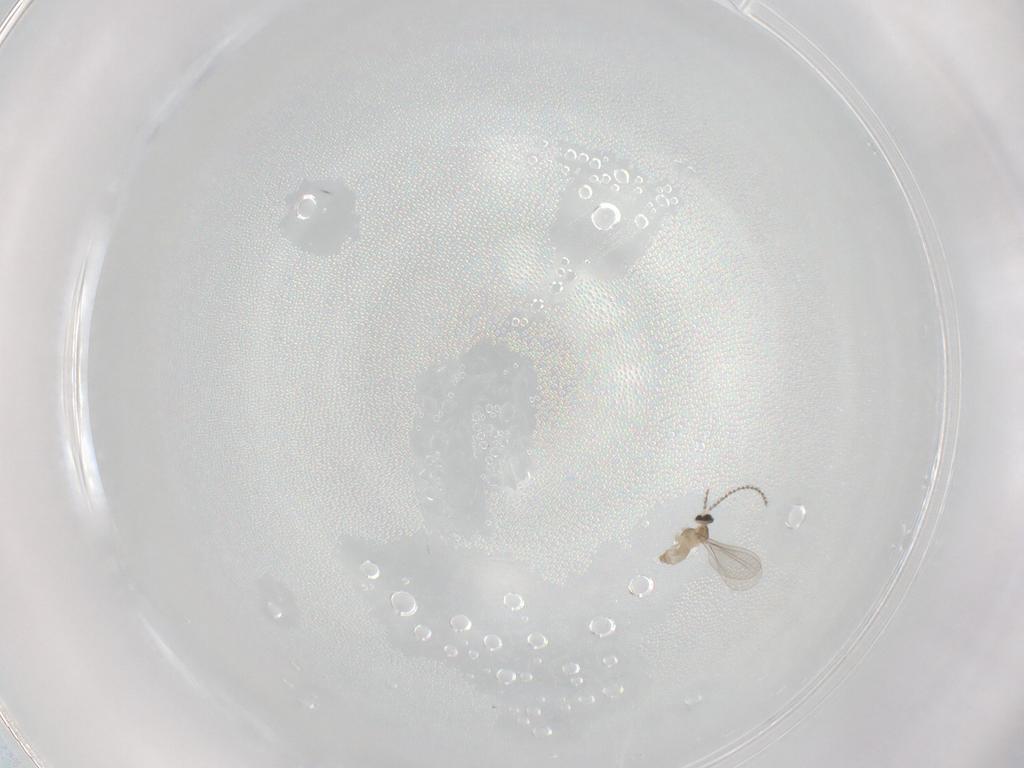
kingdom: Animalia
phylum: Arthropoda
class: Insecta
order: Diptera
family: Cecidomyiidae
